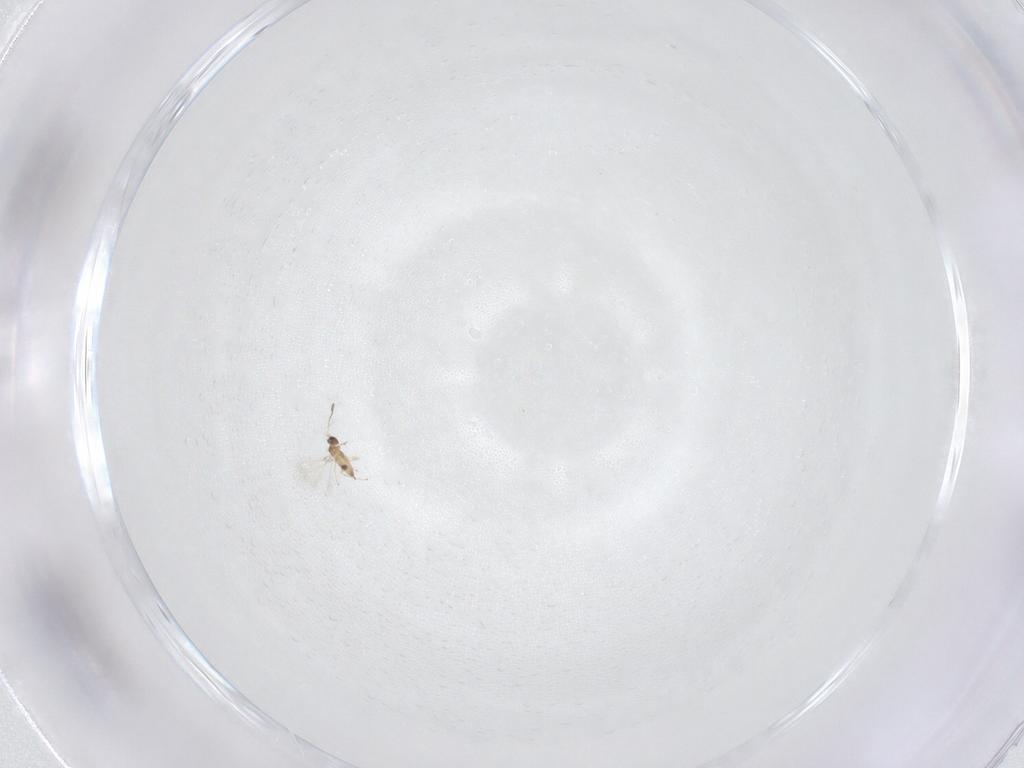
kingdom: Animalia
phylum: Arthropoda
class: Insecta
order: Hymenoptera
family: Mymaridae
